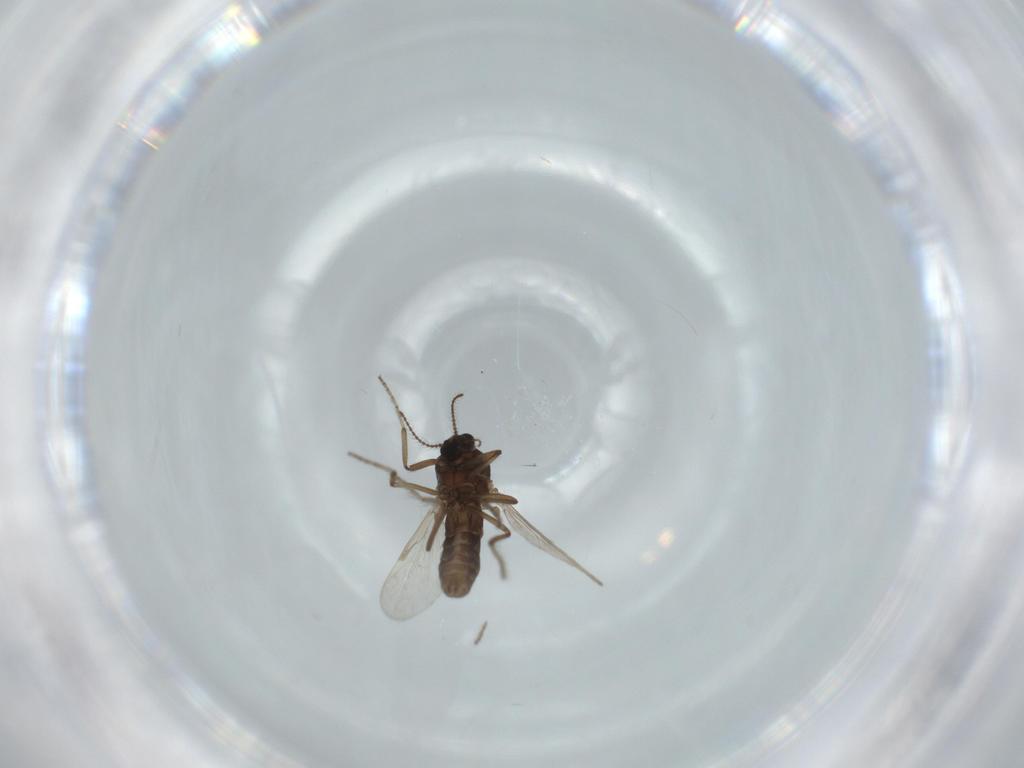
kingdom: Animalia
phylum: Arthropoda
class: Insecta
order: Diptera
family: Ceratopogonidae
